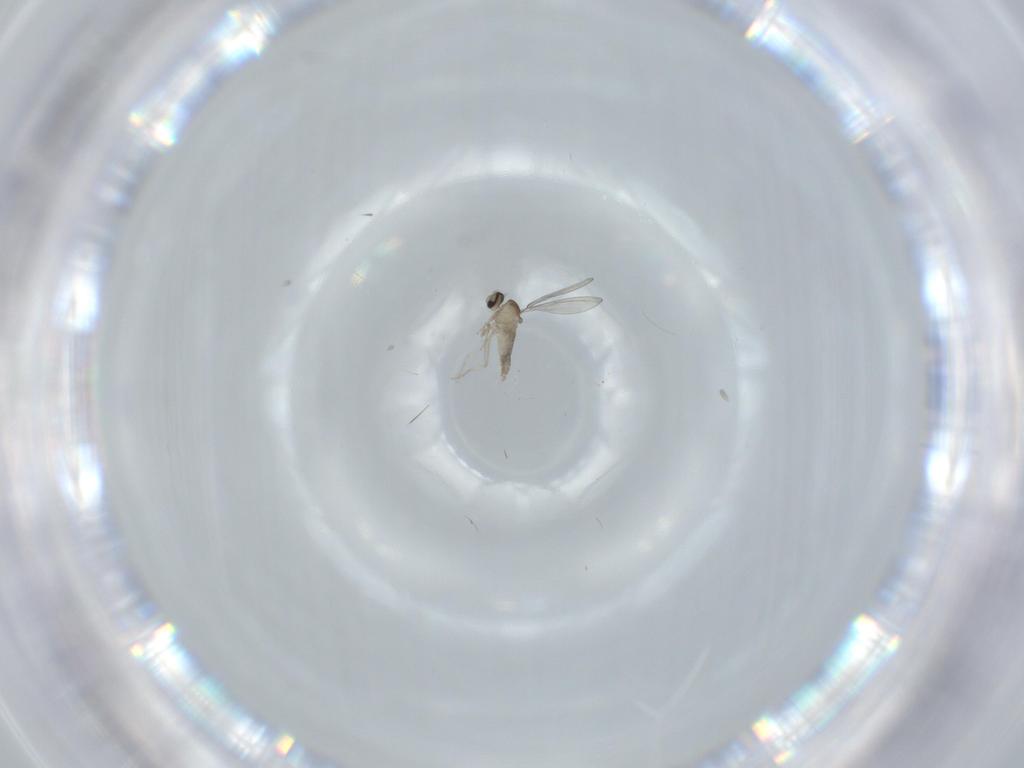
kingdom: Animalia
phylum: Arthropoda
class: Insecta
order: Diptera
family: Cecidomyiidae
